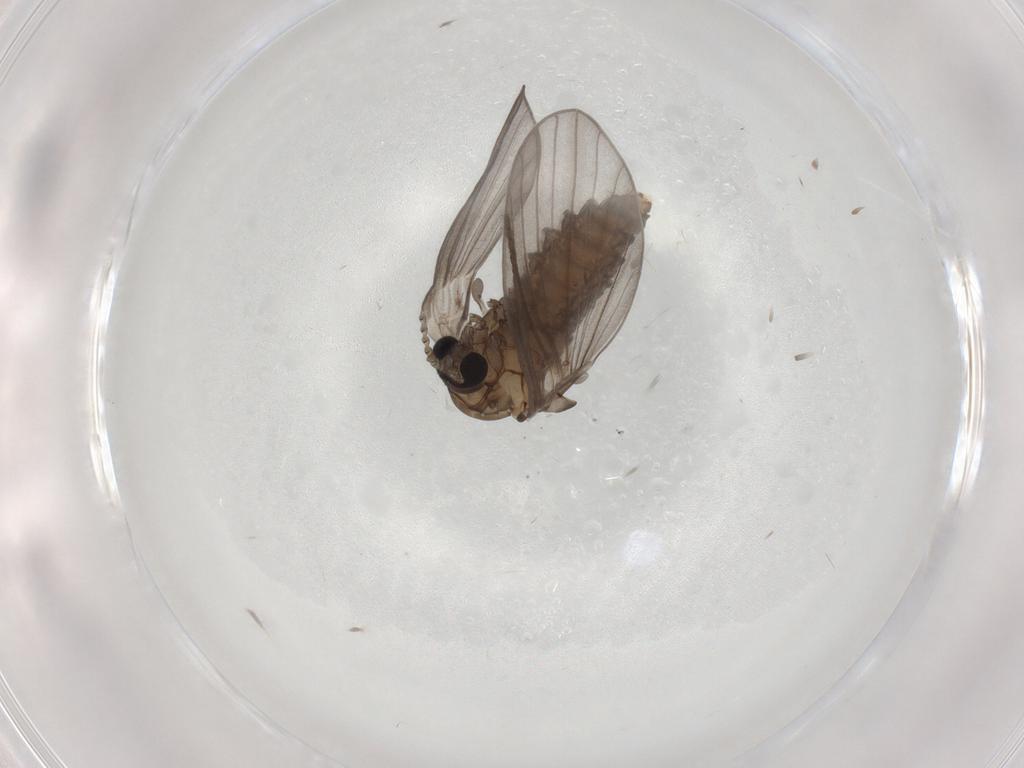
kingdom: Animalia
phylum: Arthropoda
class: Insecta
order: Diptera
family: Psychodidae
